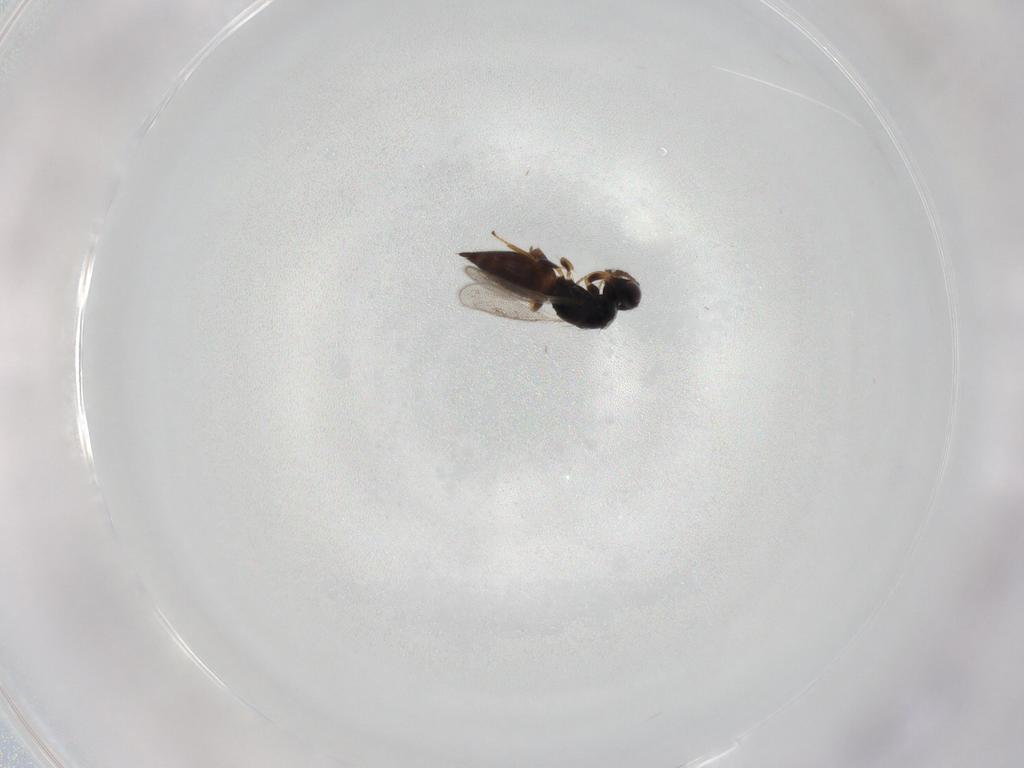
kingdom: Animalia
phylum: Arthropoda
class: Insecta
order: Hymenoptera
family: Eulophidae
